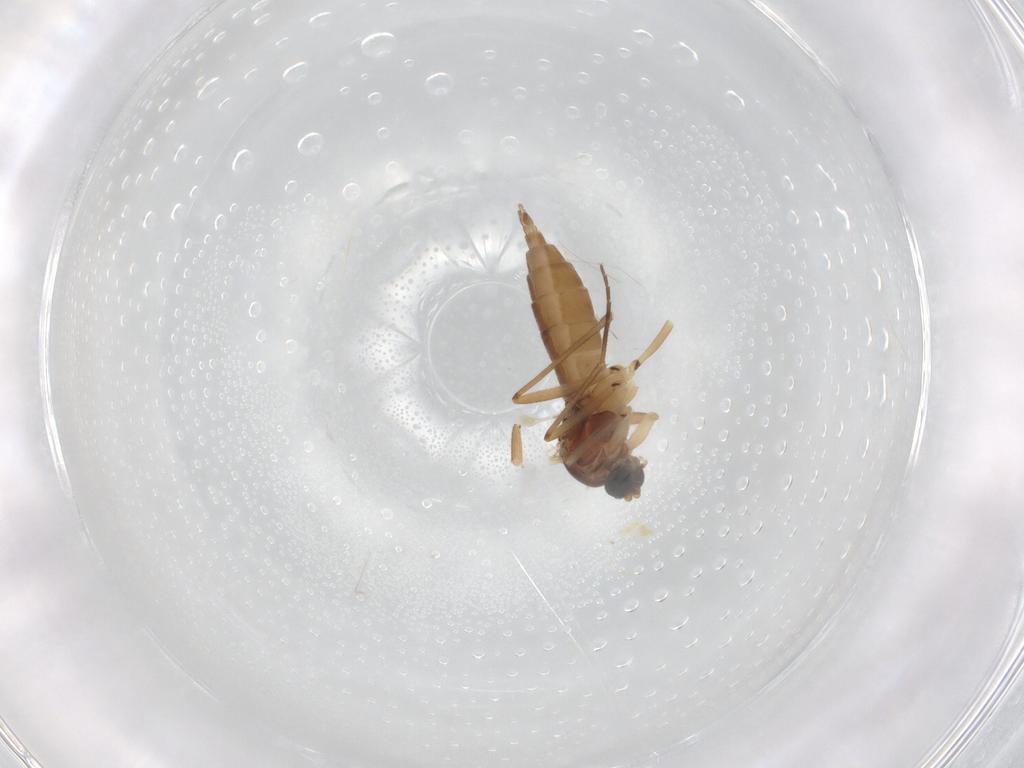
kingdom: Animalia
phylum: Arthropoda
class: Insecta
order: Diptera
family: Sciaridae
